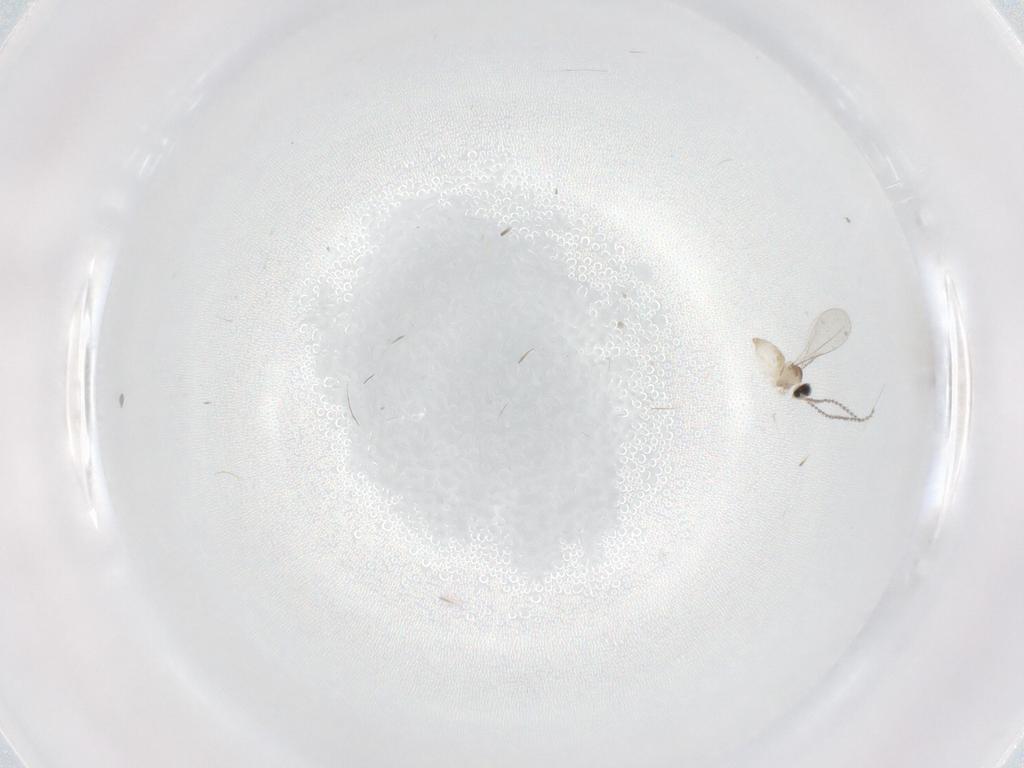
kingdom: Animalia
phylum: Arthropoda
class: Insecta
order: Diptera
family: Cecidomyiidae
